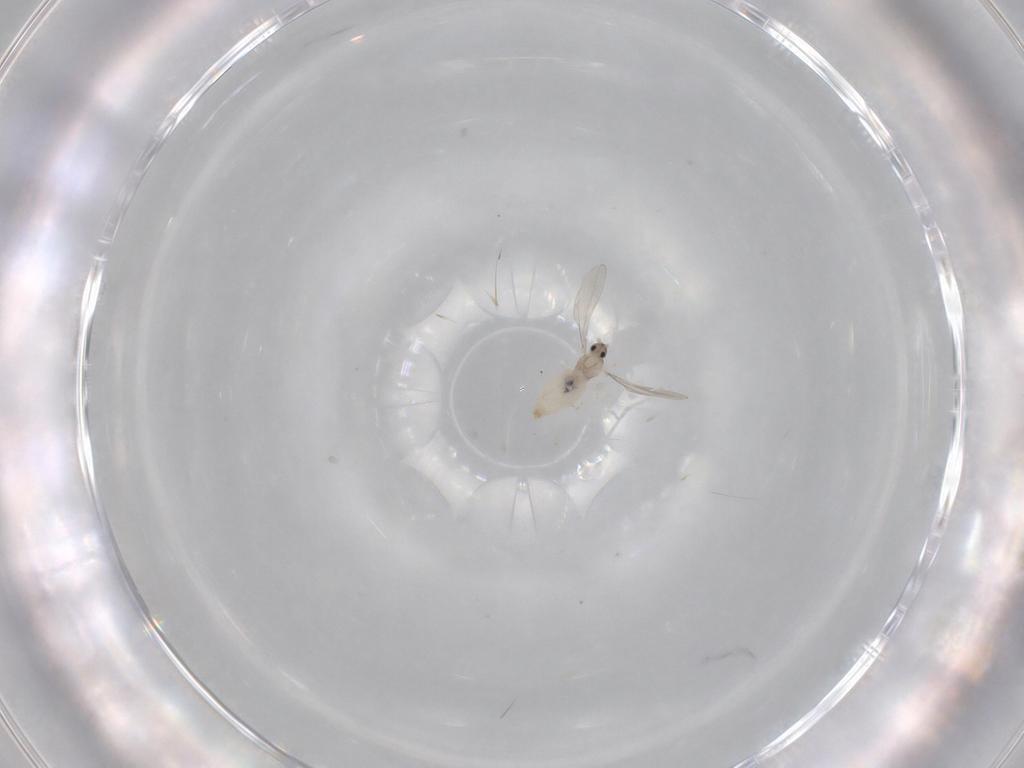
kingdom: Animalia
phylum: Arthropoda
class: Insecta
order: Diptera
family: Cecidomyiidae
